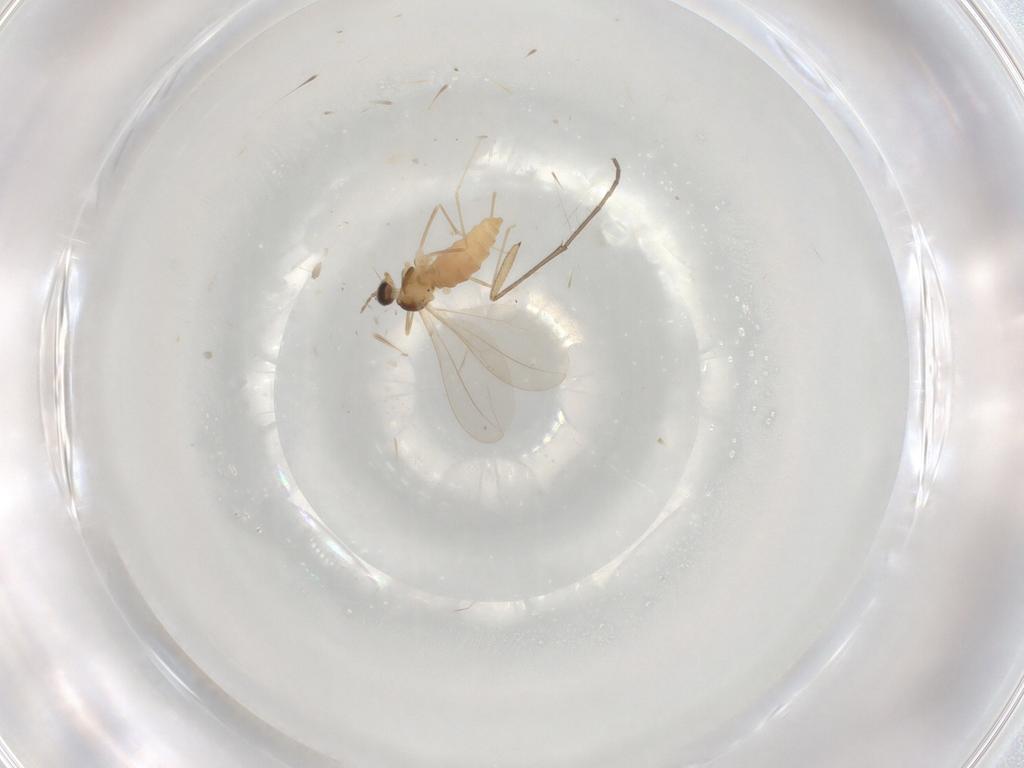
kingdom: Animalia
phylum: Arthropoda
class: Insecta
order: Diptera
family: Cecidomyiidae
